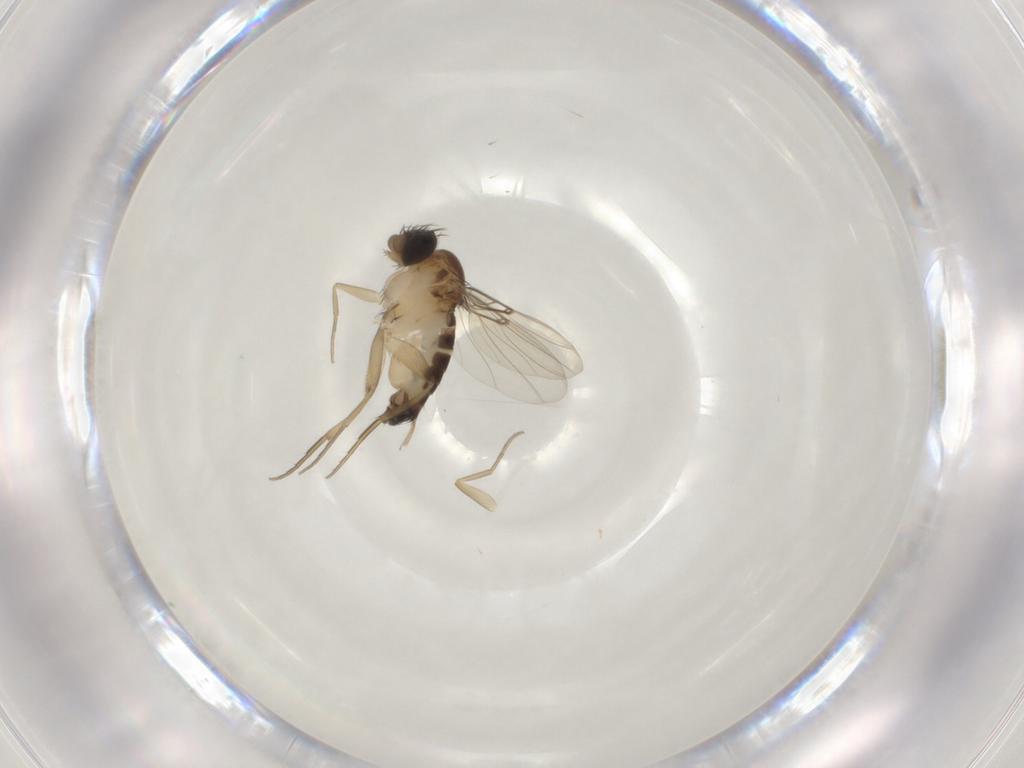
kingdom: Animalia
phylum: Arthropoda
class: Insecta
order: Diptera
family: Phoridae
